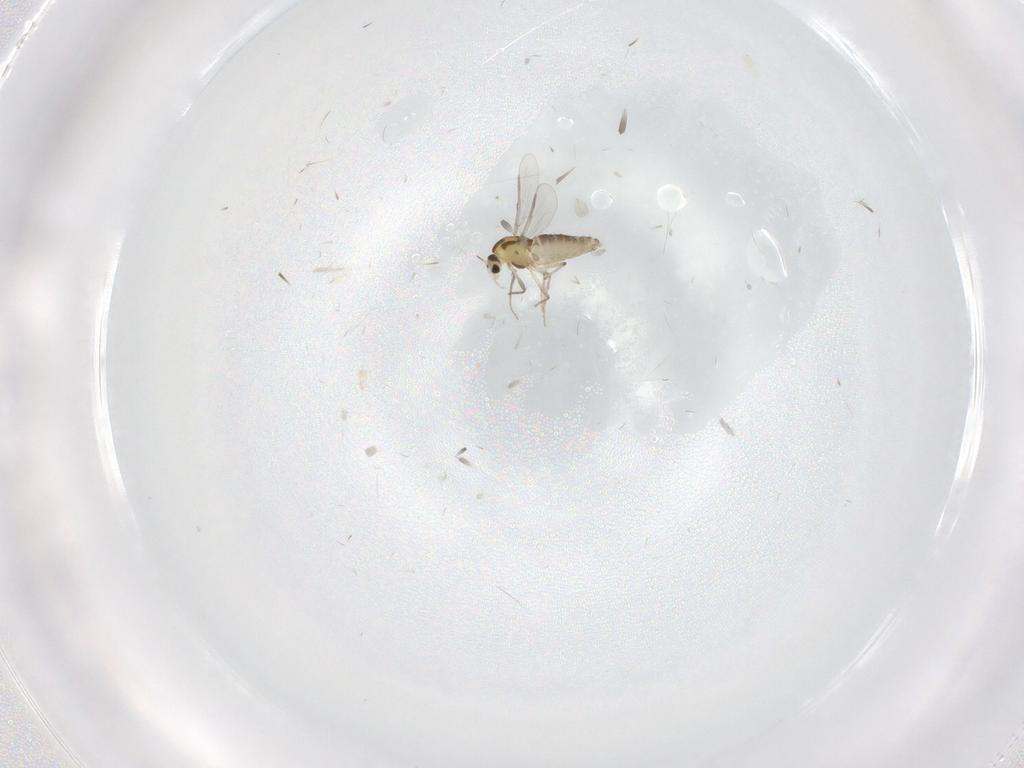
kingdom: Animalia
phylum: Arthropoda
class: Insecta
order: Diptera
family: Chironomidae
